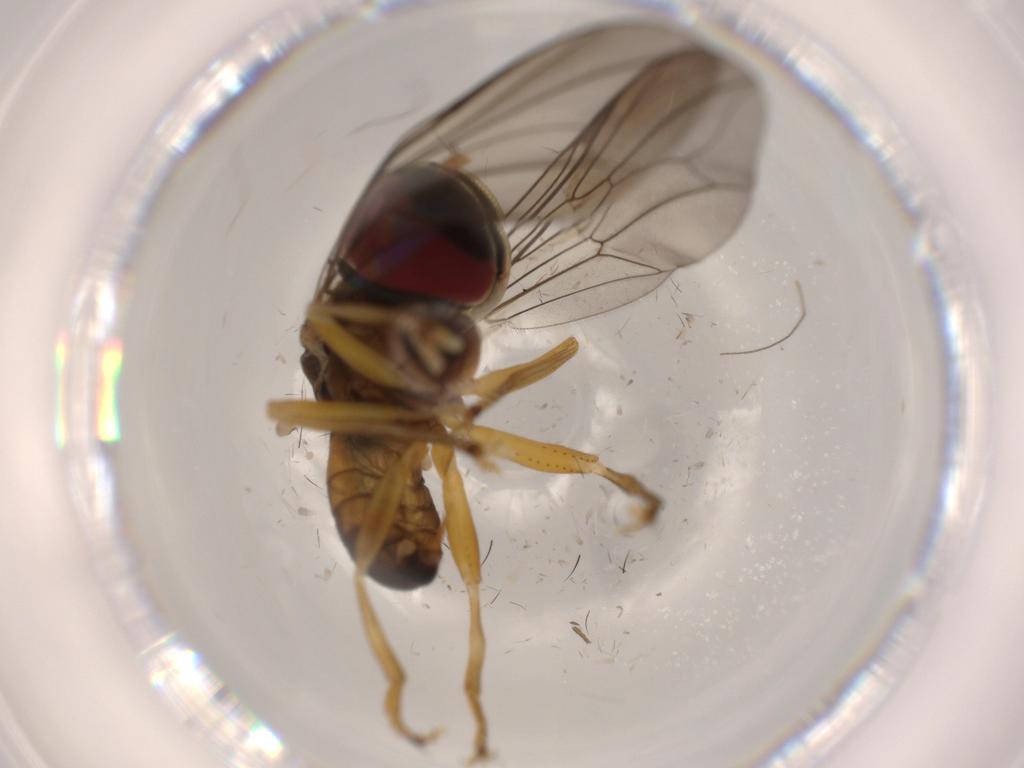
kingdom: Animalia
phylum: Arthropoda
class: Insecta
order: Diptera
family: Pipunculidae
